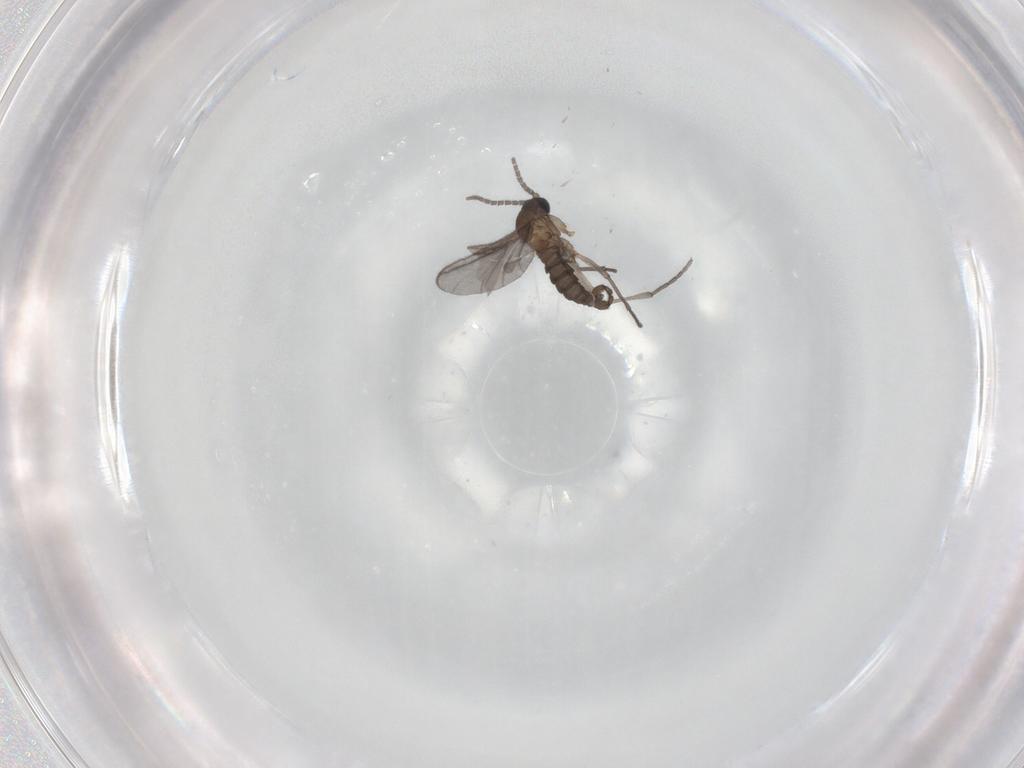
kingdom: Animalia
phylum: Arthropoda
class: Insecta
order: Diptera
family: Sciaridae
